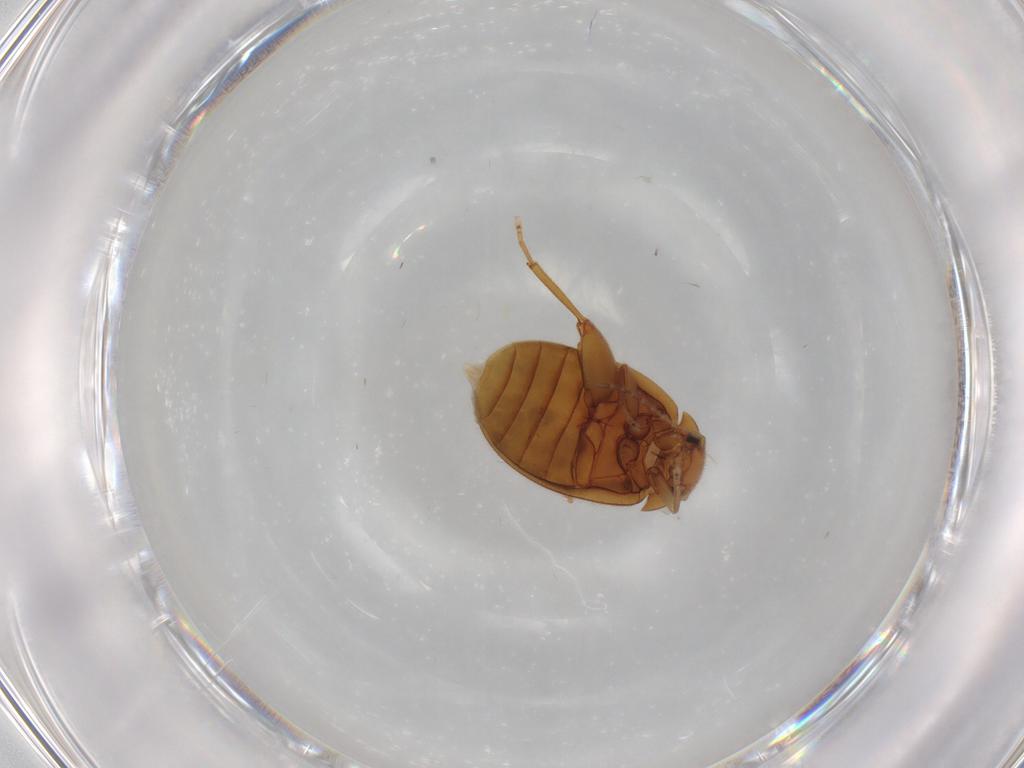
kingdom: Animalia
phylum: Arthropoda
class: Insecta
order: Coleoptera
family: Scirtidae
